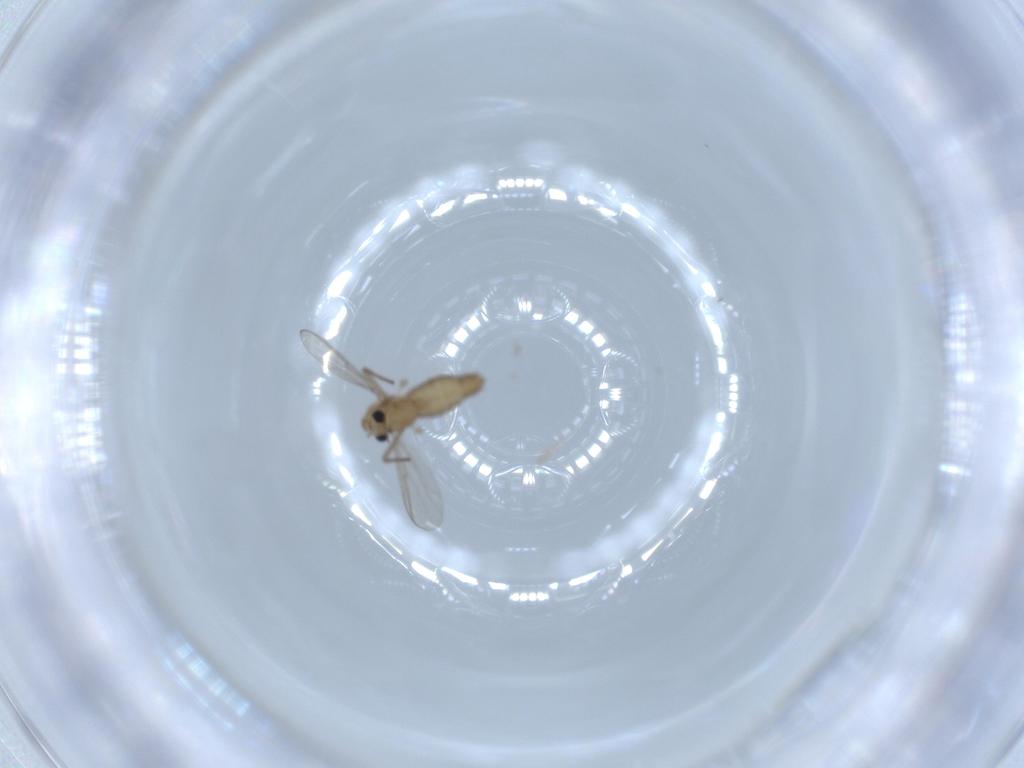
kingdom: Animalia
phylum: Arthropoda
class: Insecta
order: Diptera
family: Chironomidae
